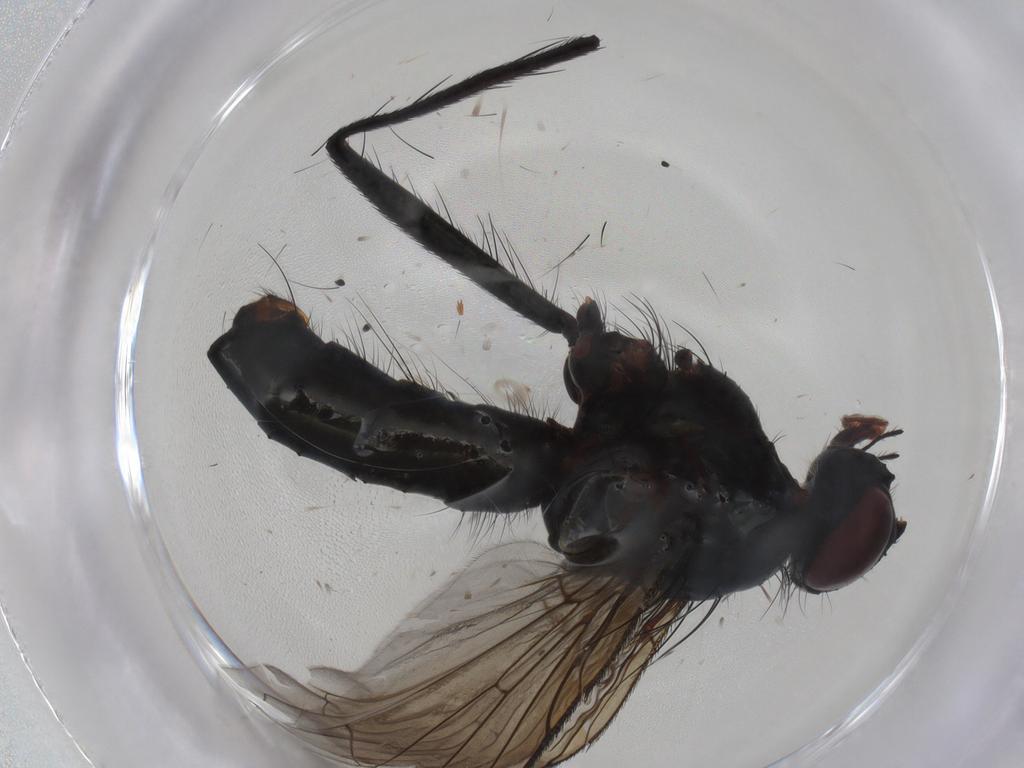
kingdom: Animalia
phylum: Arthropoda
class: Insecta
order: Diptera
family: Tachinidae
